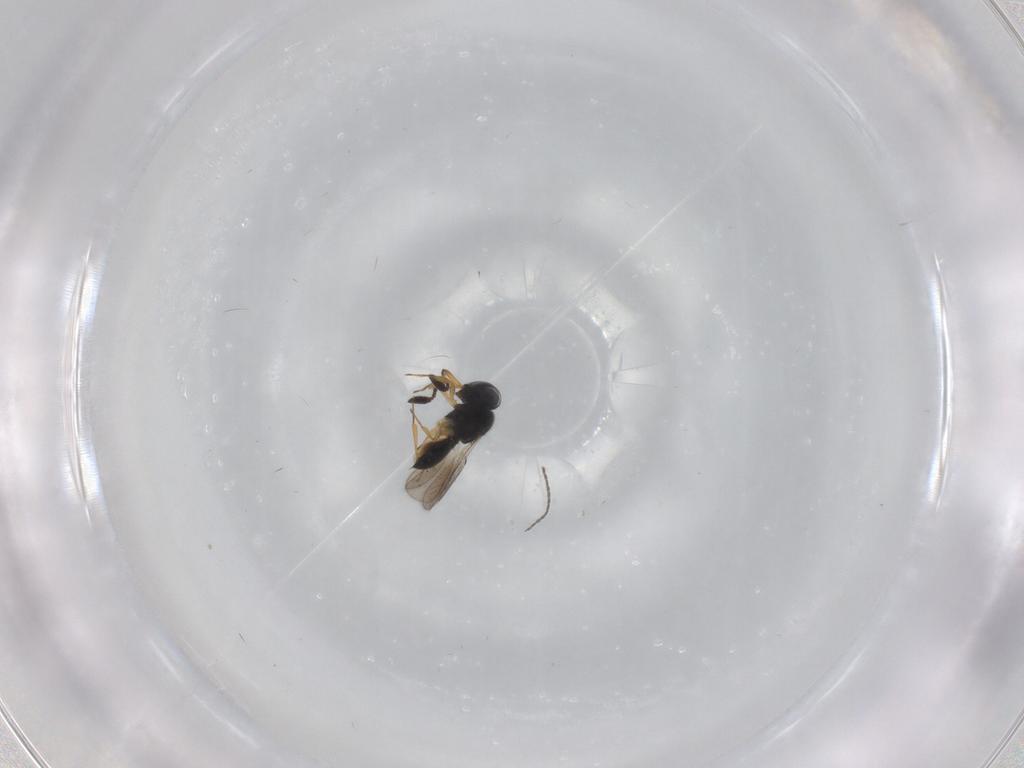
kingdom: Animalia
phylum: Arthropoda
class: Insecta
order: Hymenoptera
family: Scelionidae
